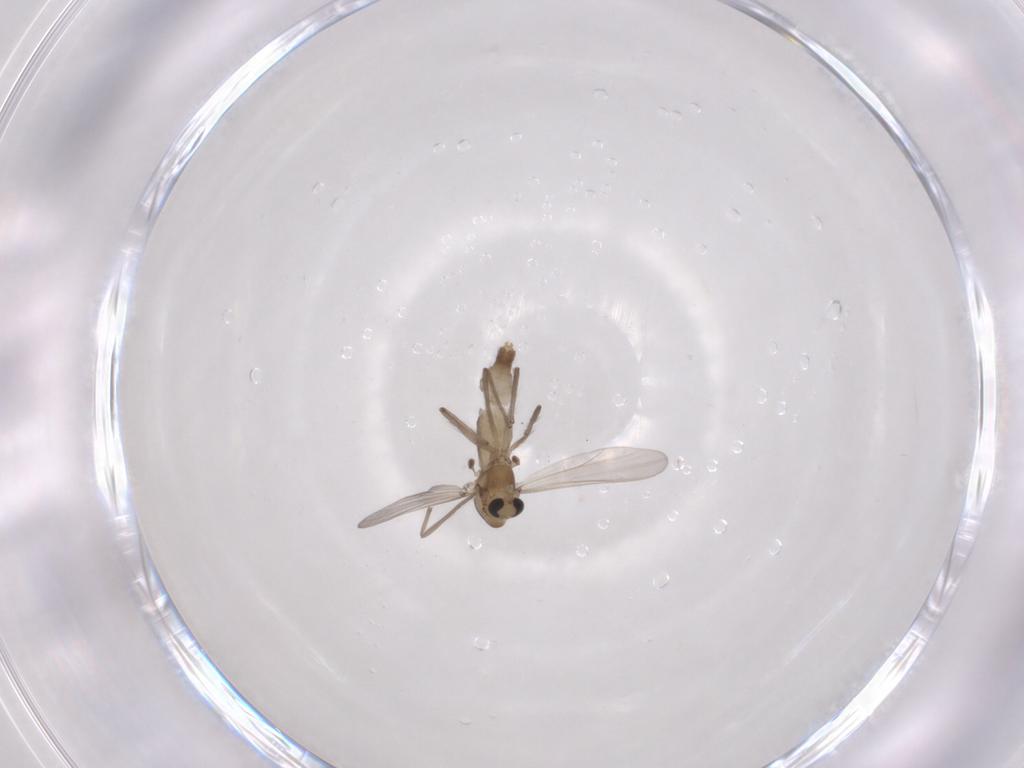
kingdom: Animalia
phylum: Arthropoda
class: Insecta
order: Diptera
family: Chironomidae
